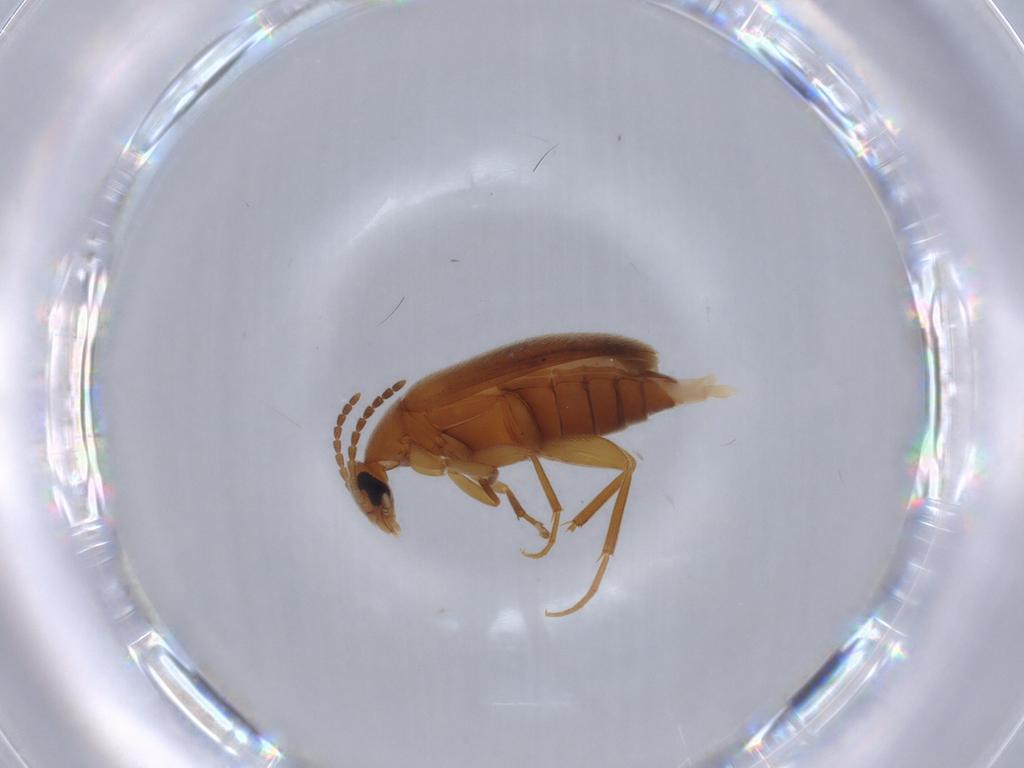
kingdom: Animalia
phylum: Arthropoda
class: Insecta
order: Coleoptera
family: Scraptiidae
